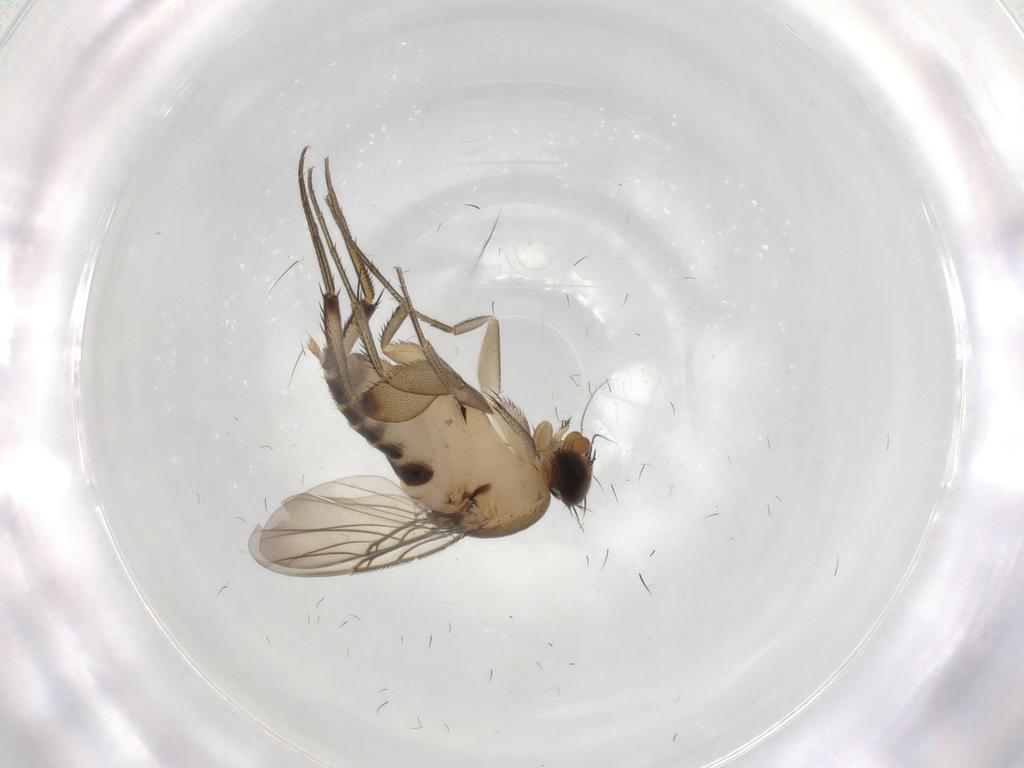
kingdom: Animalia
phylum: Arthropoda
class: Insecta
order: Diptera
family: Phoridae
